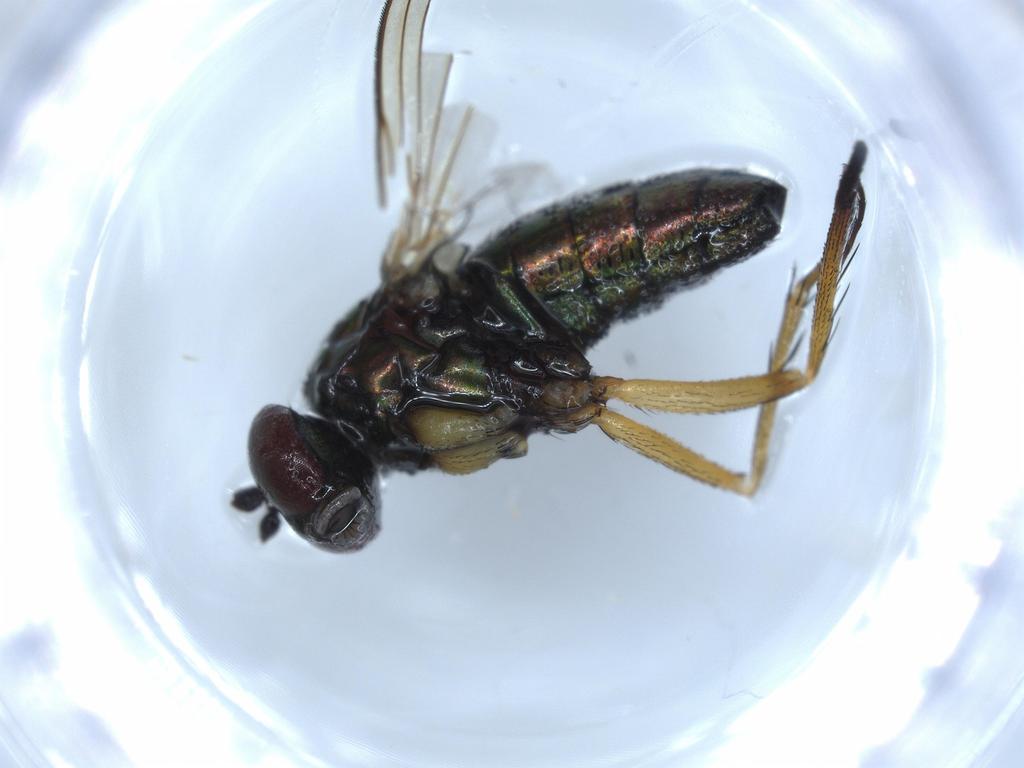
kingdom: Animalia
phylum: Arthropoda
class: Insecta
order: Diptera
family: Dolichopodidae
